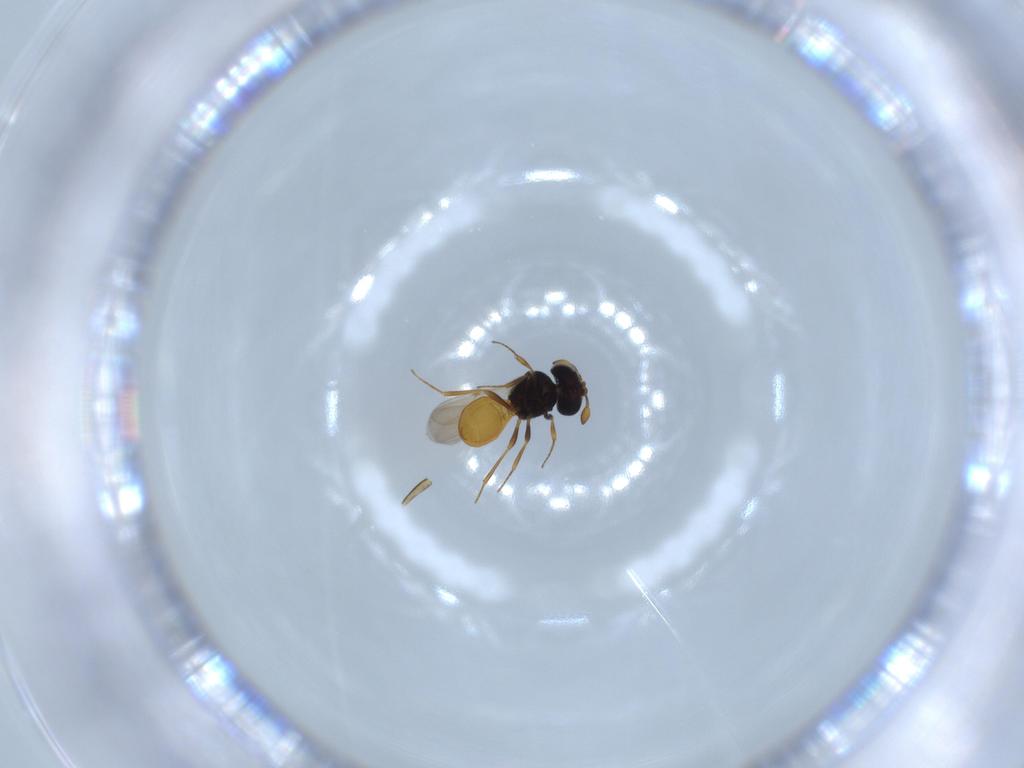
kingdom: Animalia
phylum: Arthropoda
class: Insecta
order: Hymenoptera
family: Scelionidae
